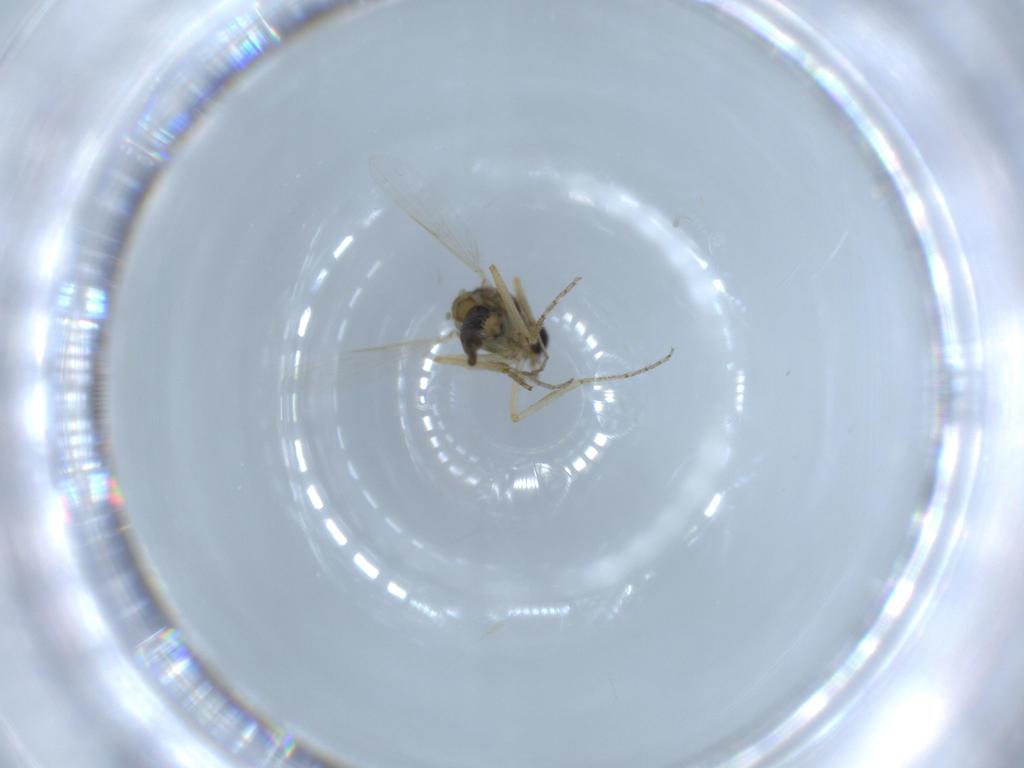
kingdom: Animalia
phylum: Arthropoda
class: Insecta
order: Diptera
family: Ceratopogonidae
